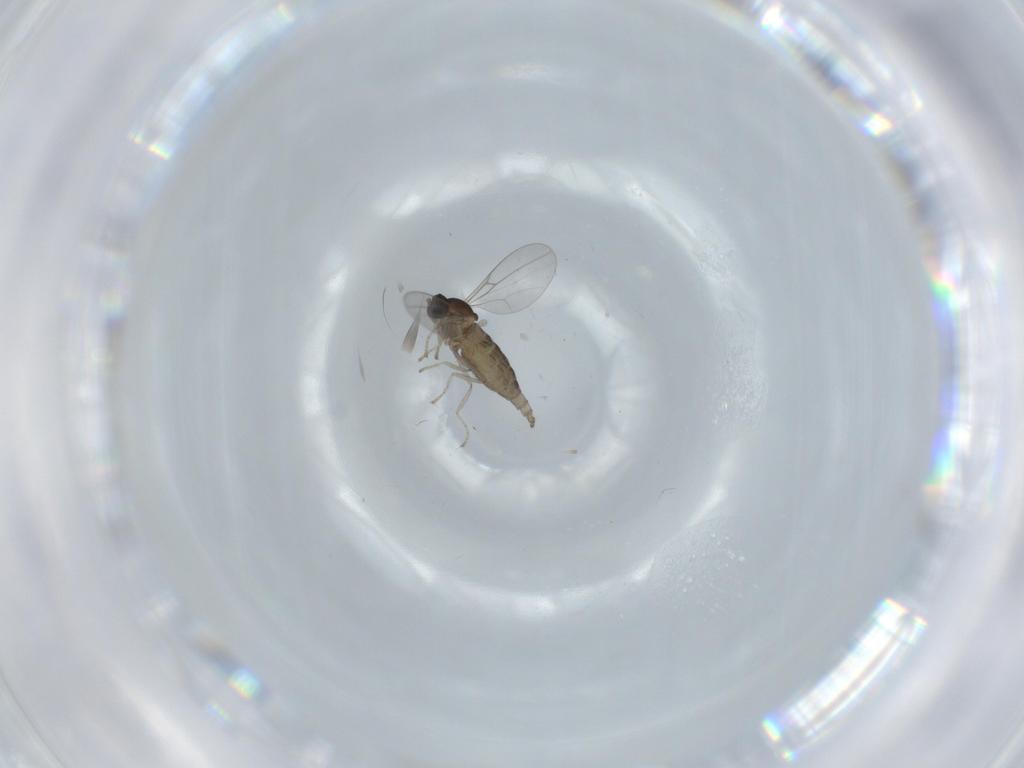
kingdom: Animalia
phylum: Arthropoda
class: Insecta
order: Diptera
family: Cecidomyiidae
